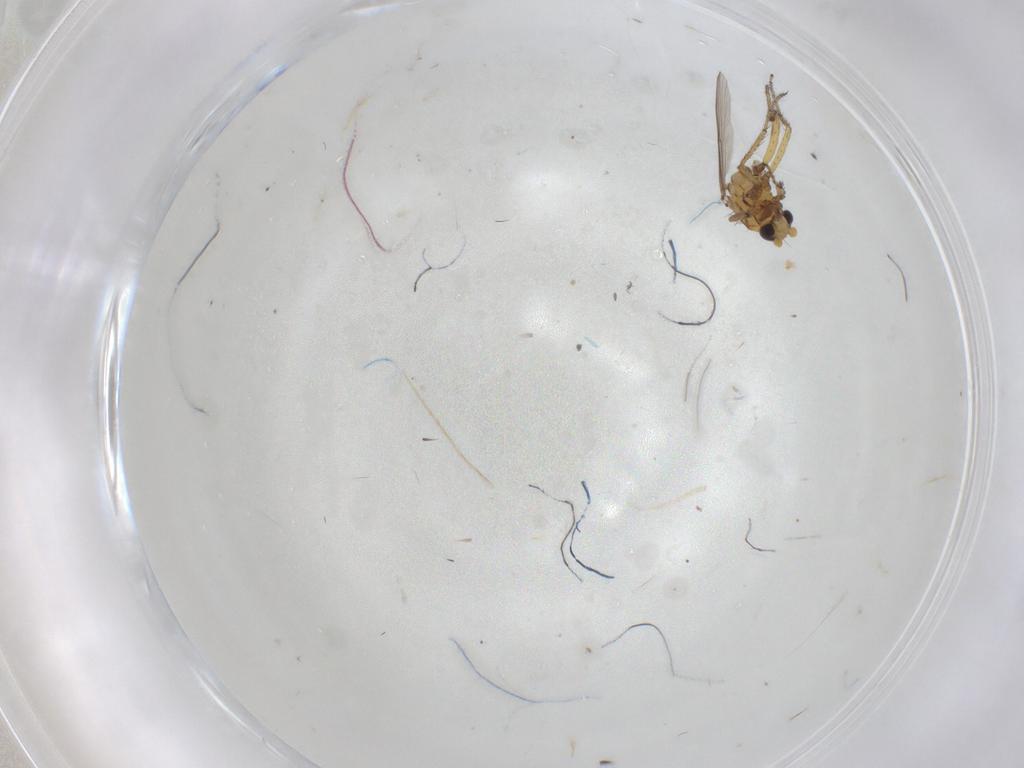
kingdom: Animalia
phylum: Arthropoda
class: Insecta
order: Diptera
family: Ceratopogonidae
